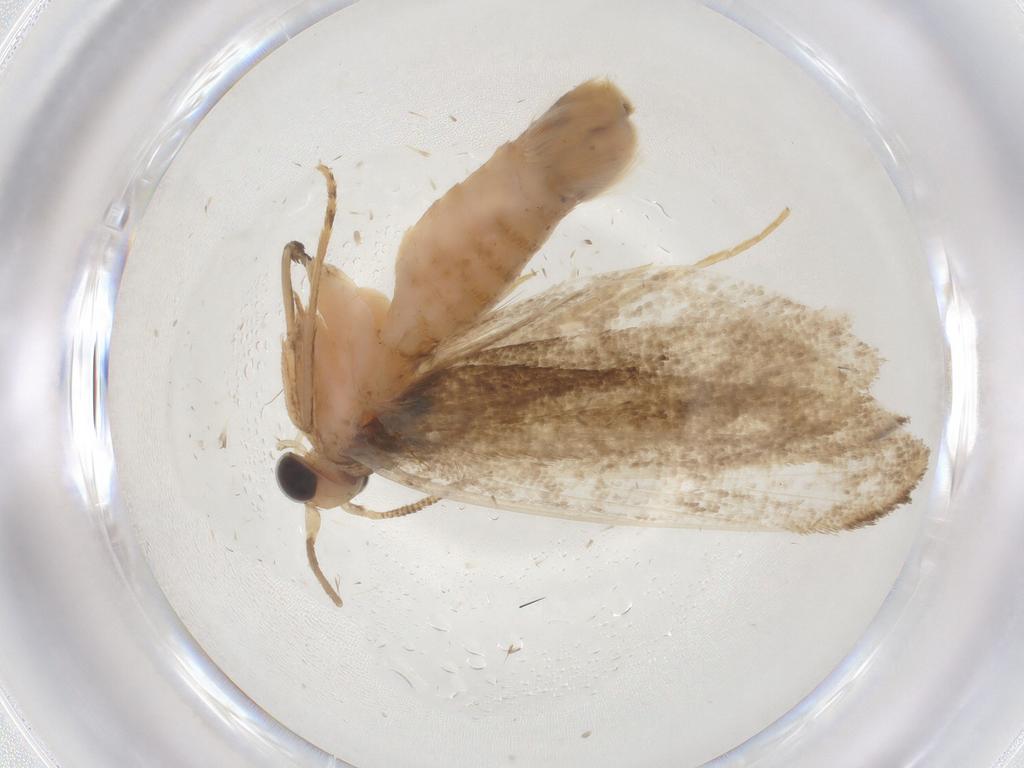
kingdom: Animalia
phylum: Arthropoda
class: Insecta
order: Lepidoptera
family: Tineidae
